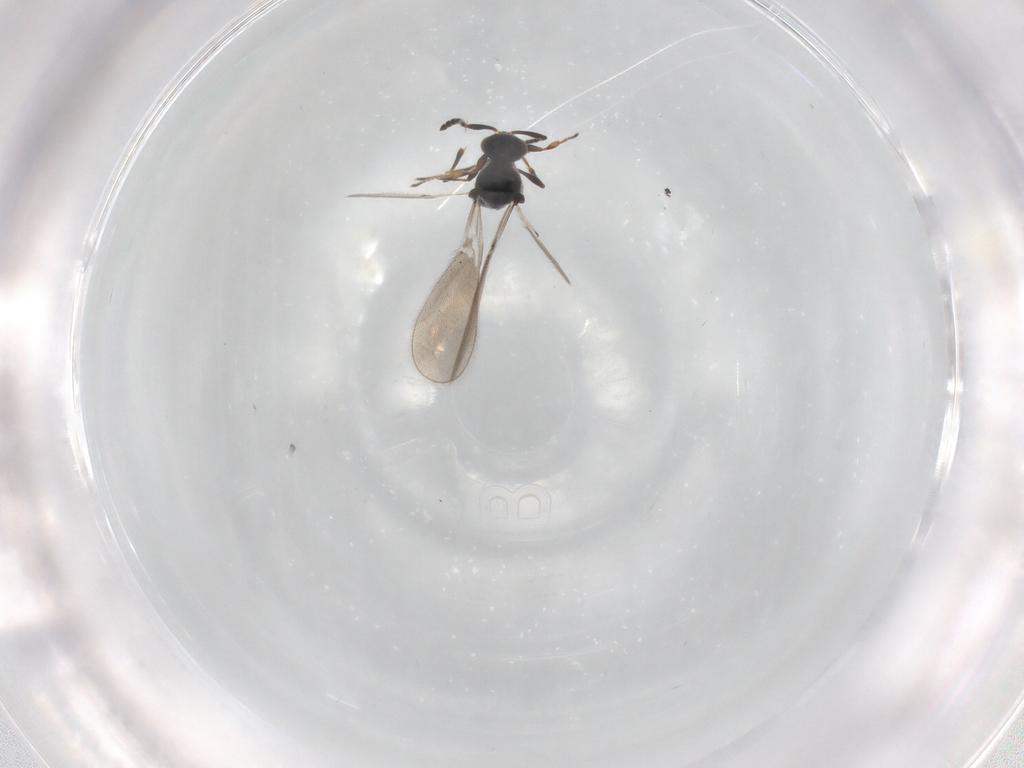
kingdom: Animalia
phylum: Arthropoda
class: Insecta
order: Hymenoptera
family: Platygastridae
